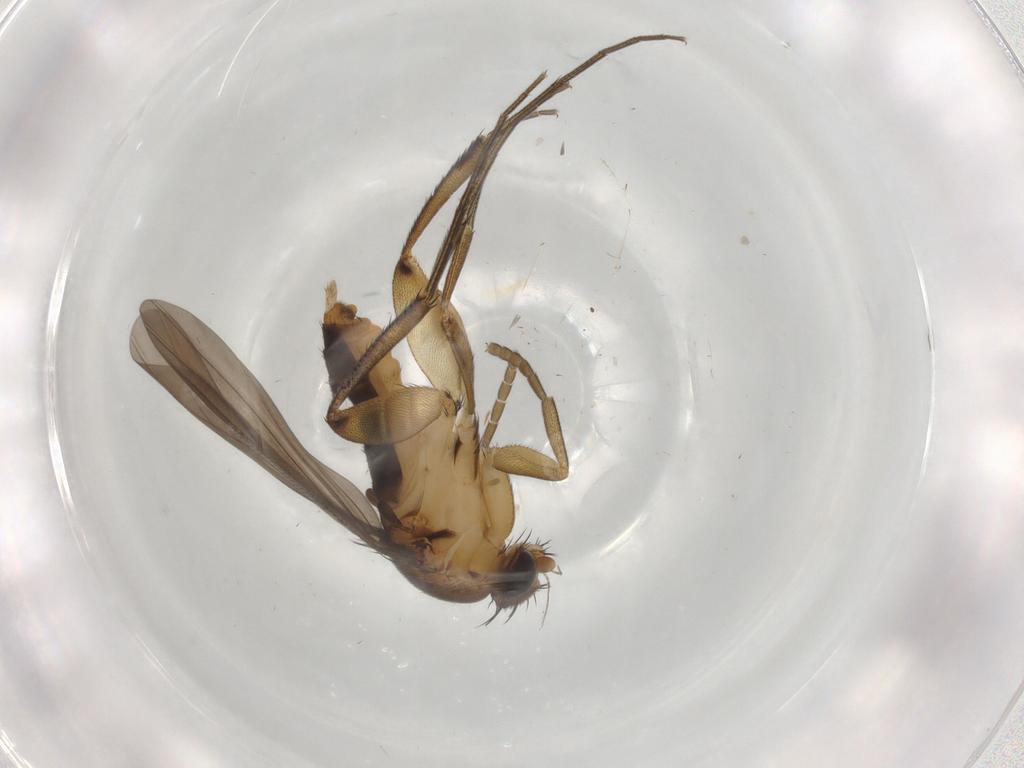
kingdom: Animalia
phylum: Arthropoda
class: Insecta
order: Diptera
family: Phoridae
